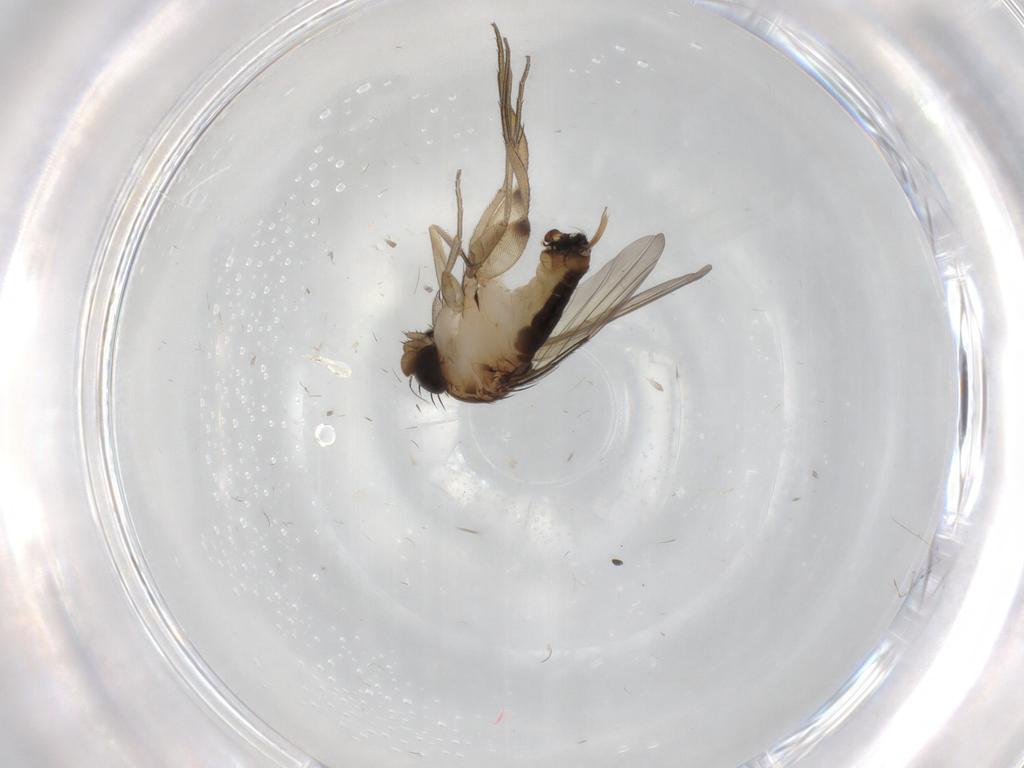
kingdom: Animalia
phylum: Arthropoda
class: Insecta
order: Diptera
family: Phoridae
